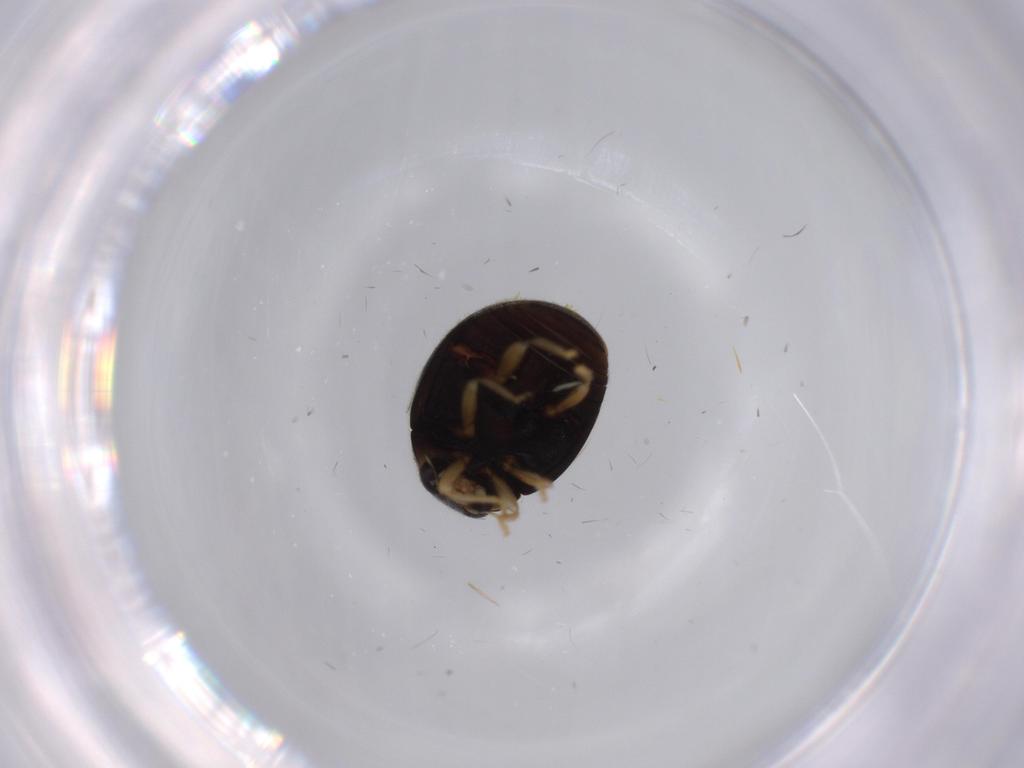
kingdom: Animalia
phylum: Arthropoda
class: Insecta
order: Coleoptera
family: Coccinellidae
